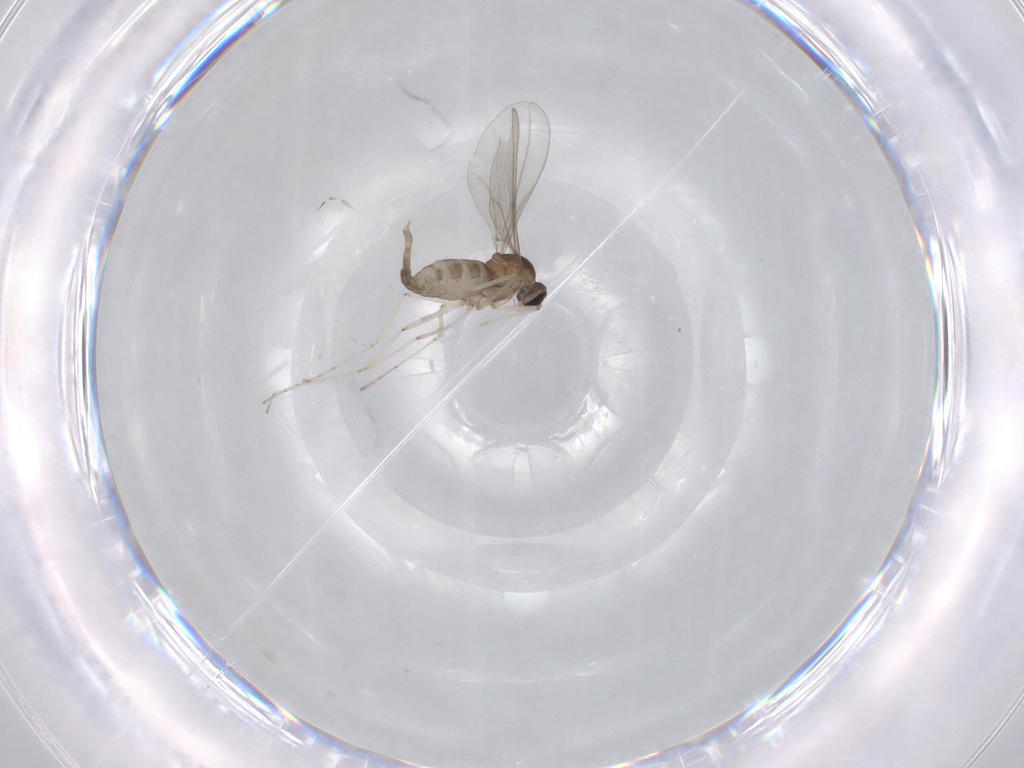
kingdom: Animalia
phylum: Arthropoda
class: Insecta
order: Diptera
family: Cecidomyiidae
